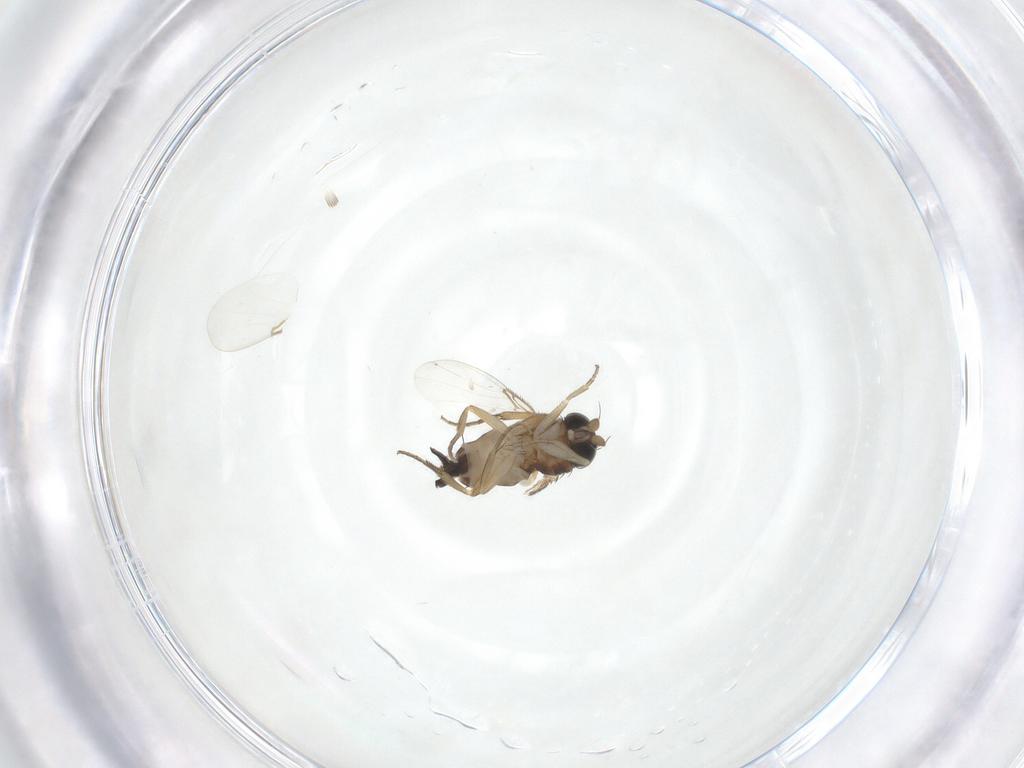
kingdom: Animalia
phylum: Arthropoda
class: Insecta
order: Diptera
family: Phoridae
